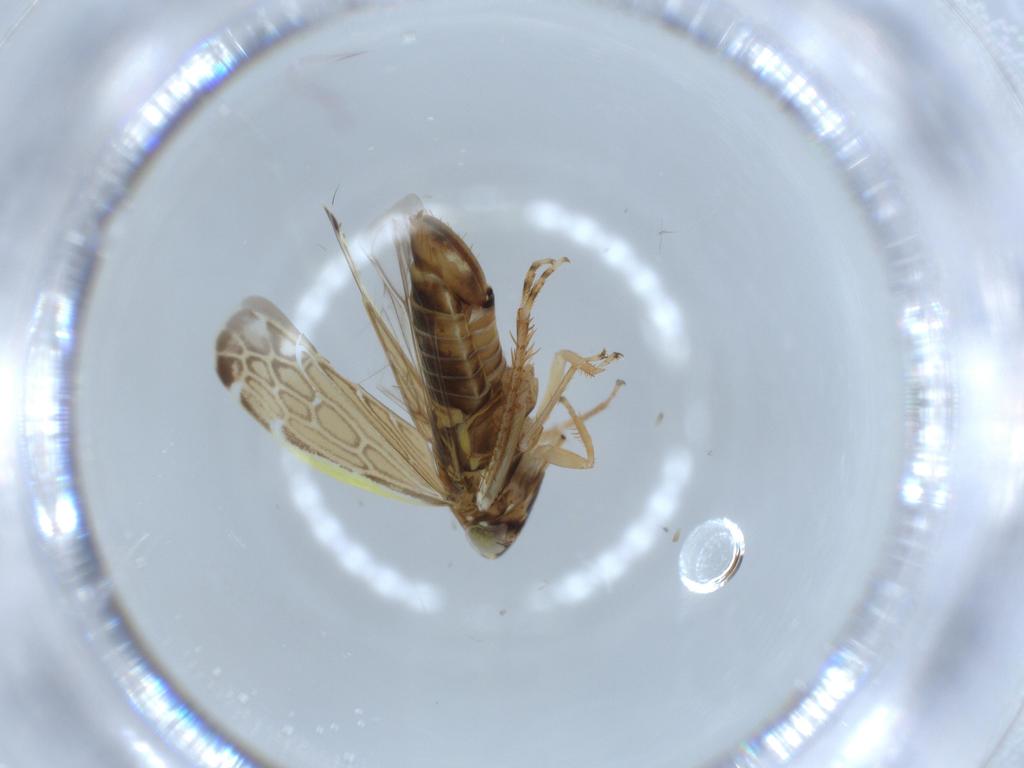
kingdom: Animalia
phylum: Arthropoda
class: Insecta
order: Hemiptera
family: Cicadellidae
